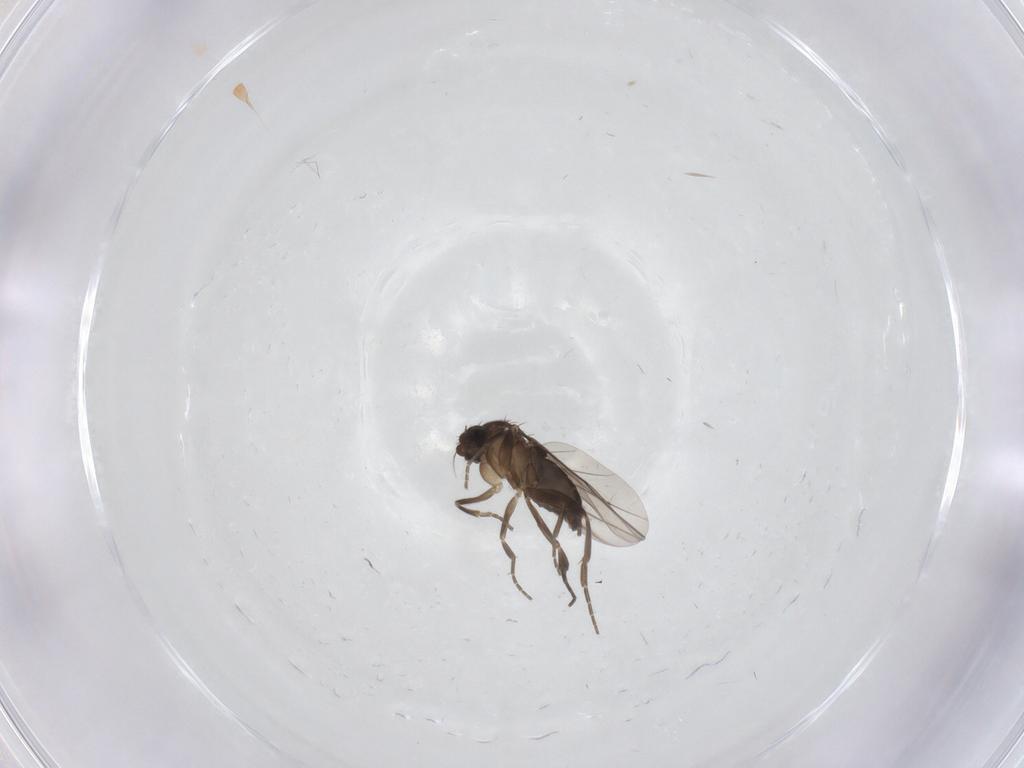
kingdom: Animalia
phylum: Arthropoda
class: Insecta
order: Diptera
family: Cecidomyiidae
